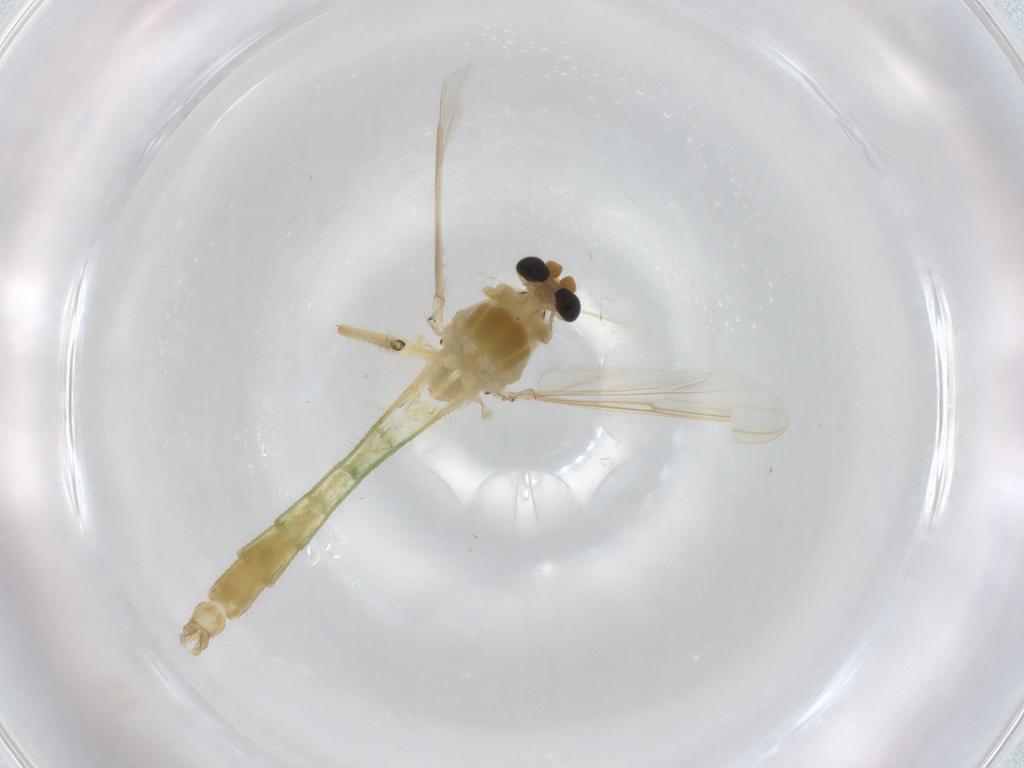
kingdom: Animalia
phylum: Arthropoda
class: Insecta
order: Diptera
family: Chironomidae
